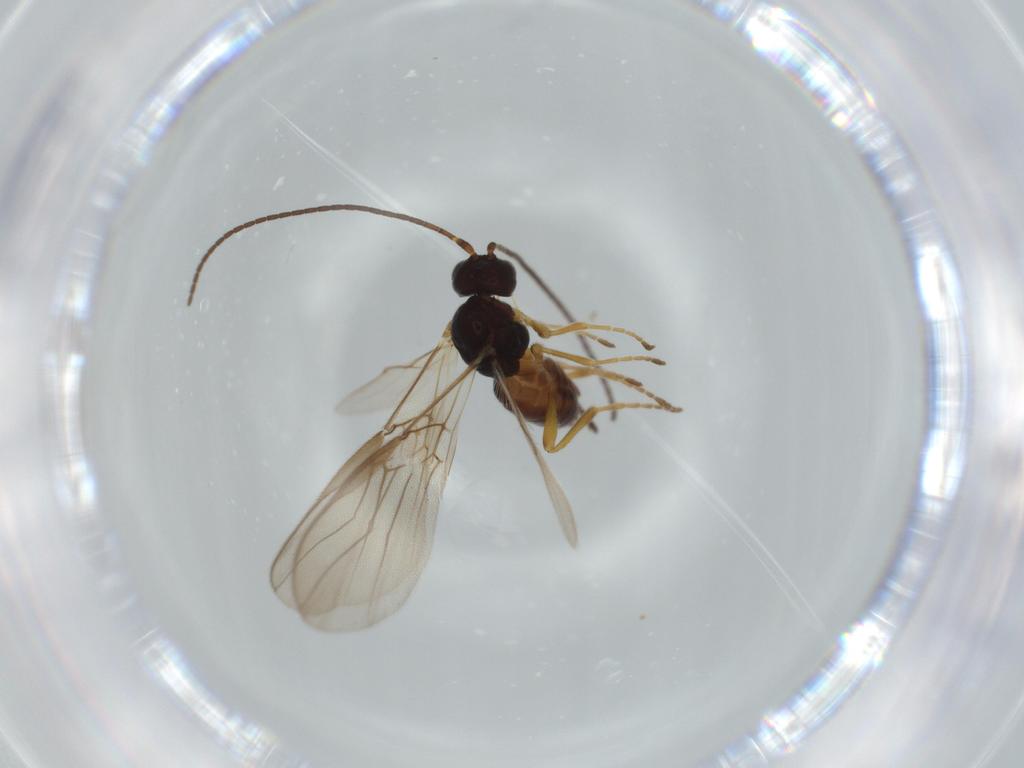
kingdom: Animalia
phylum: Arthropoda
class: Insecta
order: Hymenoptera
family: Braconidae
